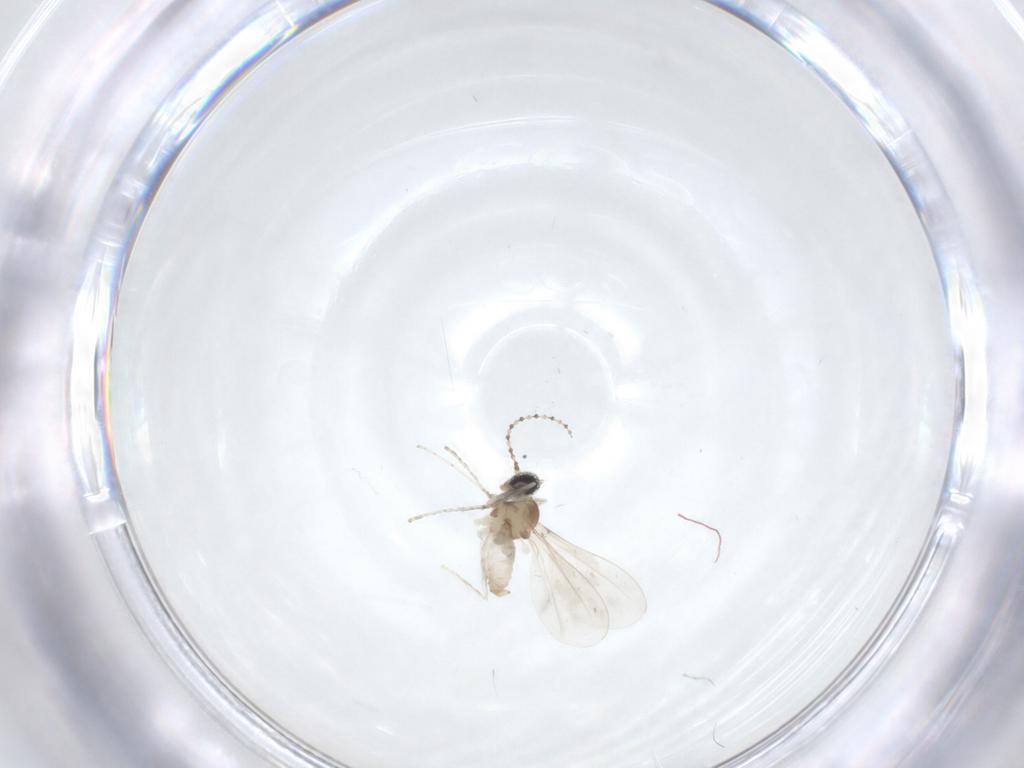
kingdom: Animalia
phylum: Arthropoda
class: Insecta
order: Diptera
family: Cecidomyiidae
